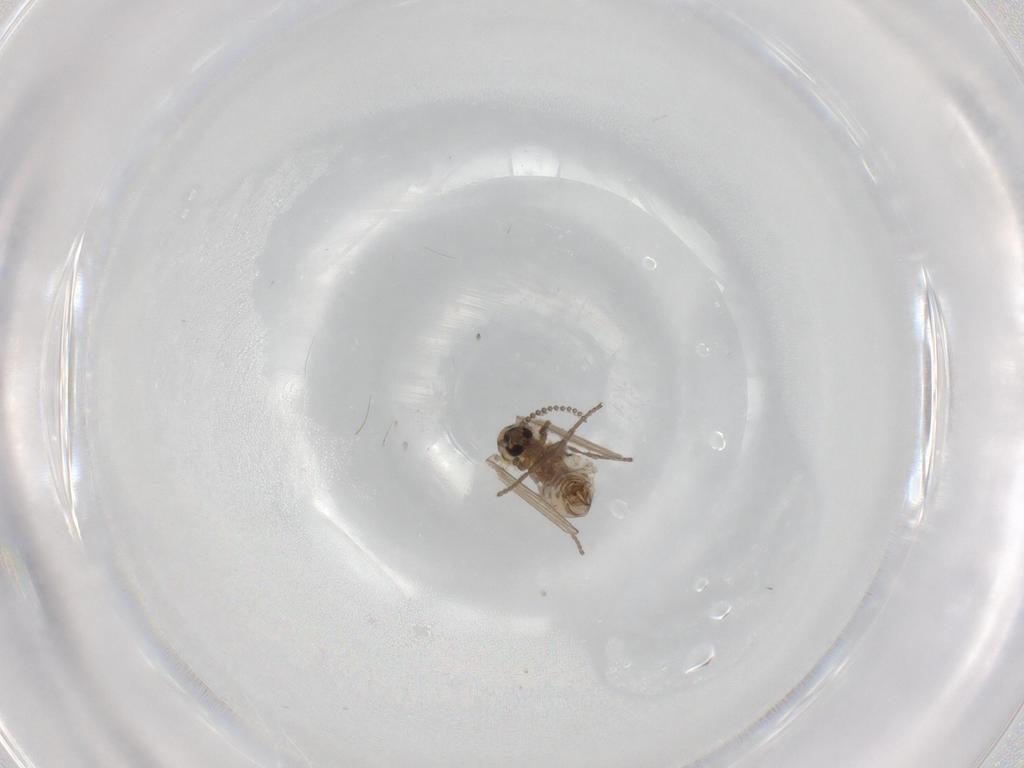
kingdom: Animalia
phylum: Arthropoda
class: Insecta
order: Diptera
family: Psychodidae
